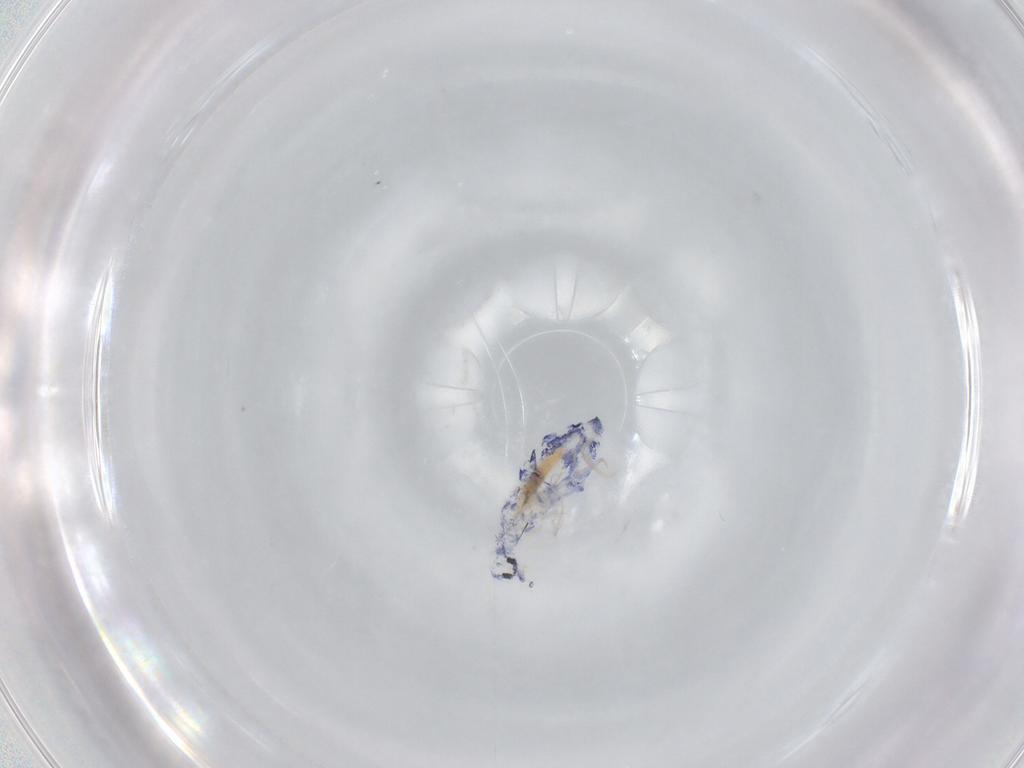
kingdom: Animalia
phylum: Arthropoda
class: Collembola
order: Entomobryomorpha
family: Entomobryidae
